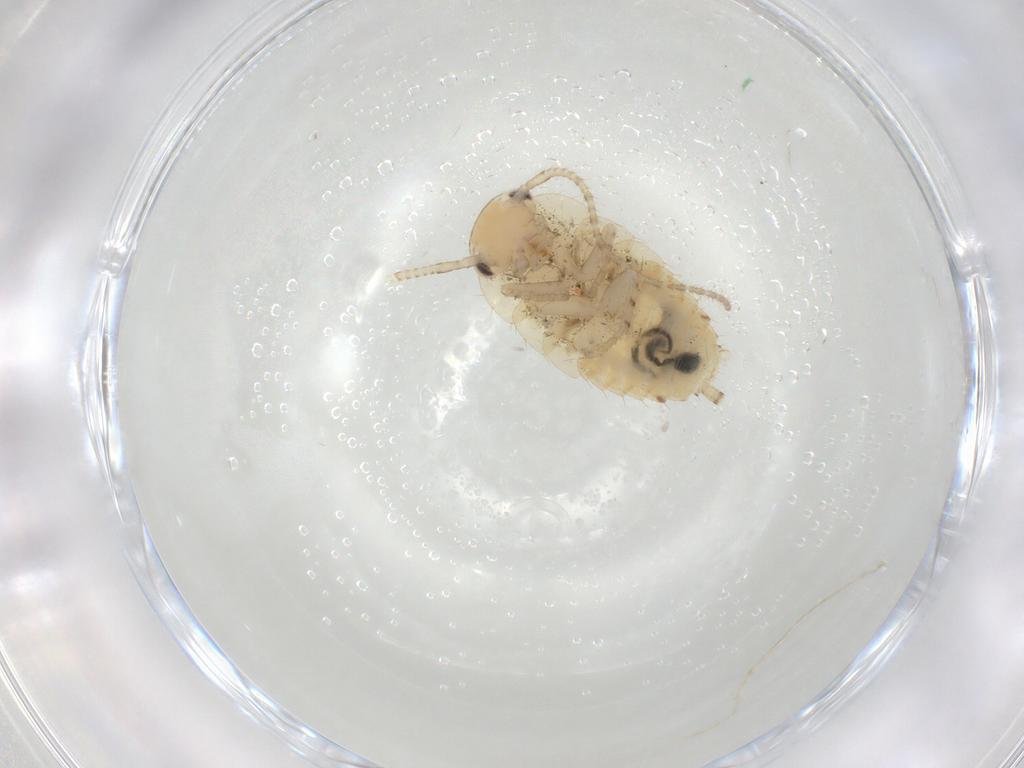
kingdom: Animalia
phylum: Arthropoda
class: Insecta
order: Blattodea
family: Ectobiidae
